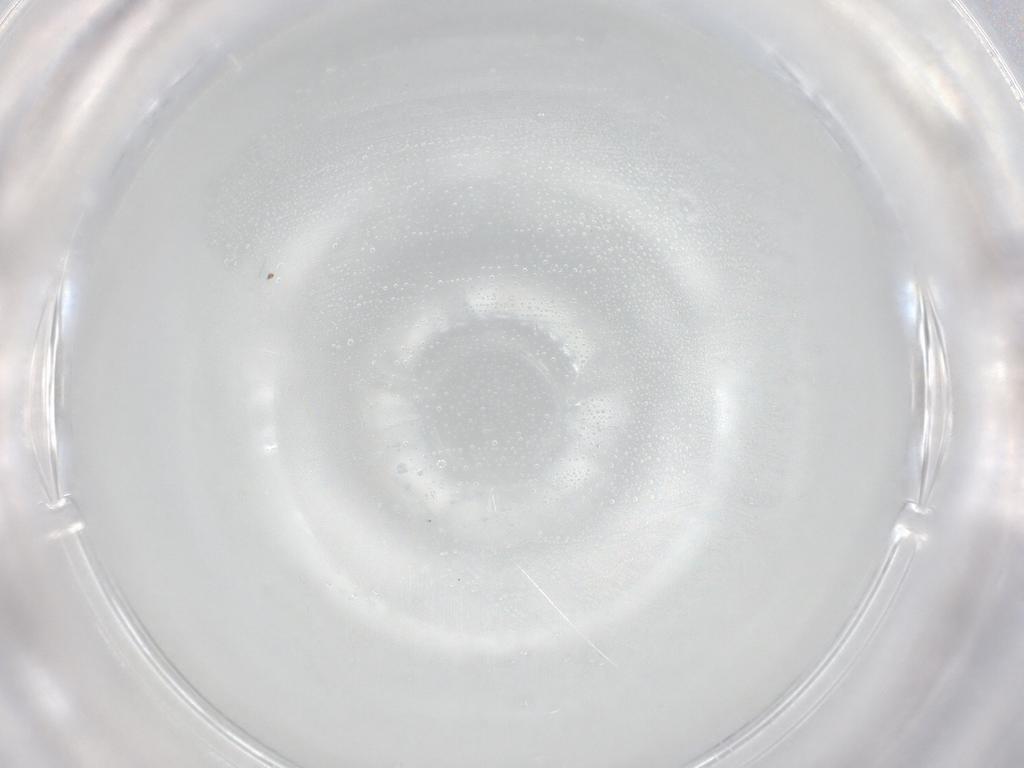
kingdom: Animalia
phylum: Arthropoda
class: Insecta
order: Diptera
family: Dolichopodidae
